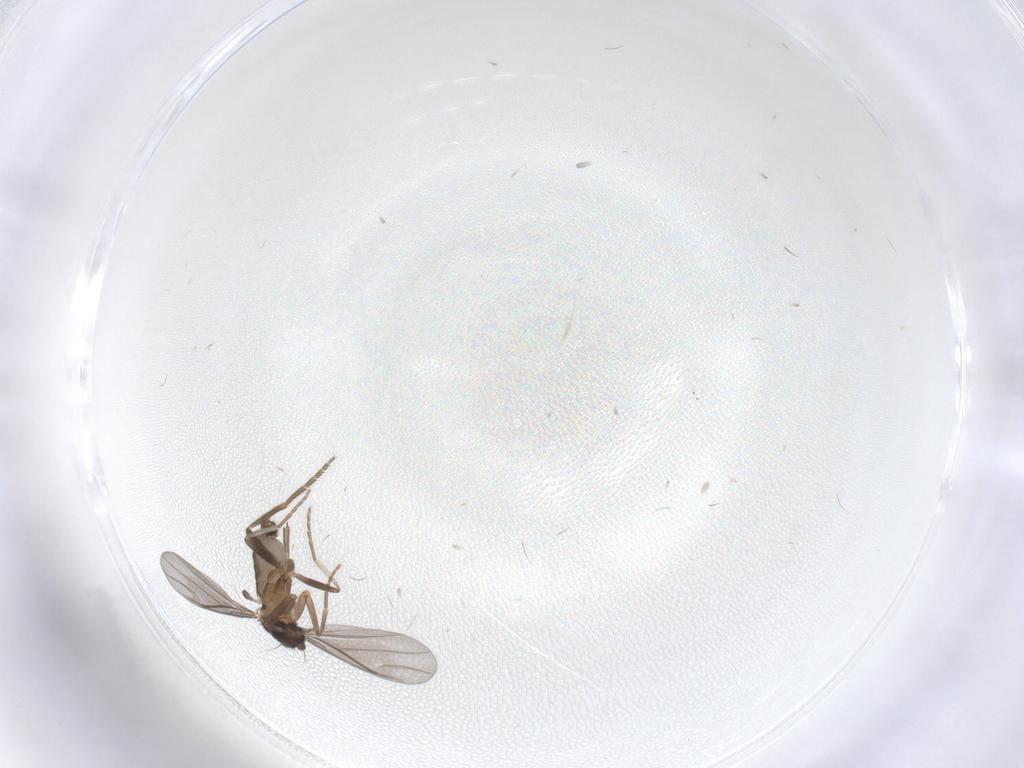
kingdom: Animalia
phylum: Arthropoda
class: Insecta
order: Diptera
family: Phoridae
